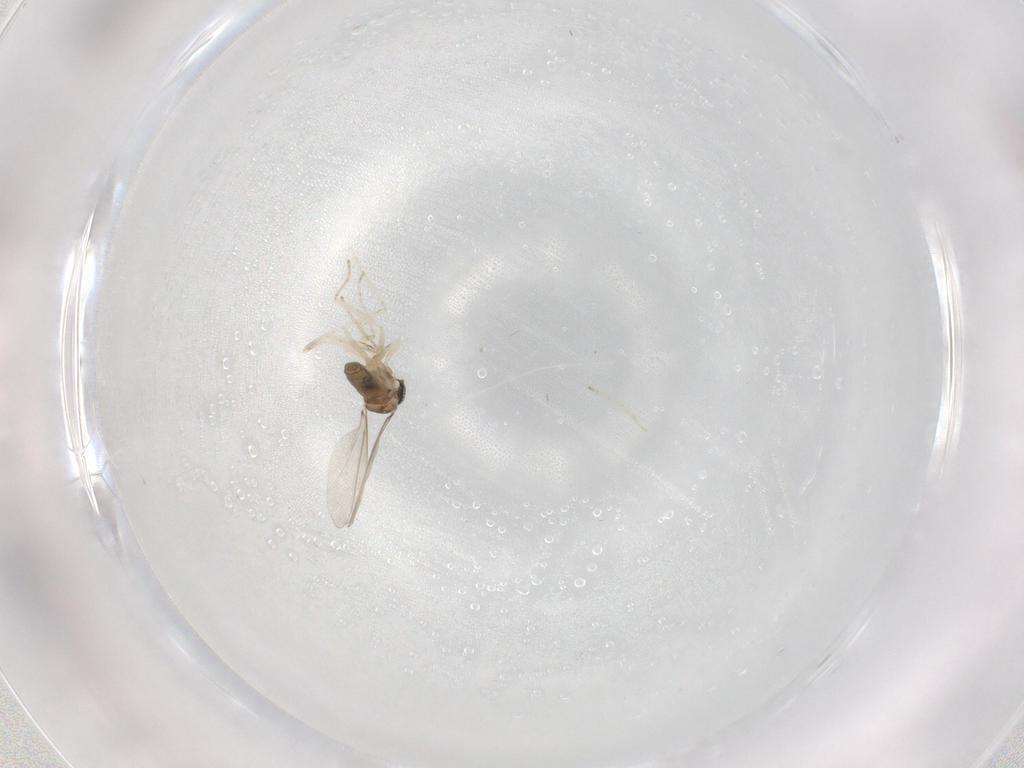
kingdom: Animalia
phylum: Arthropoda
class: Insecta
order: Diptera
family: Cecidomyiidae
